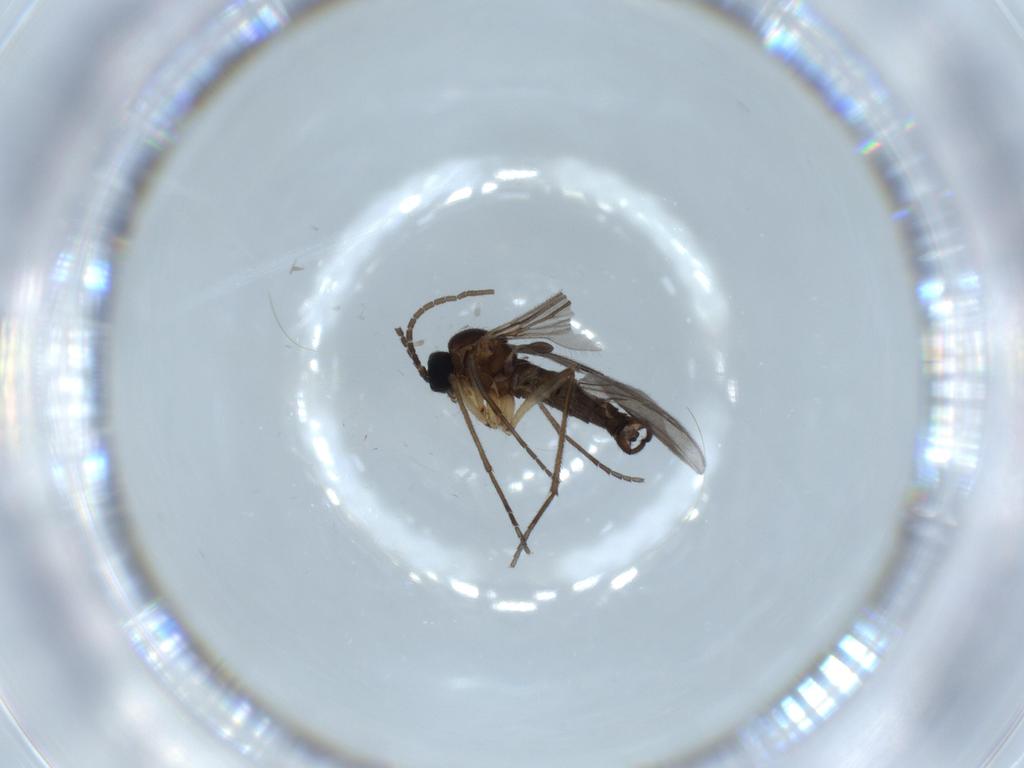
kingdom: Animalia
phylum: Arthropoda
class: Insecta
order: Diptera
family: Sciaridae
